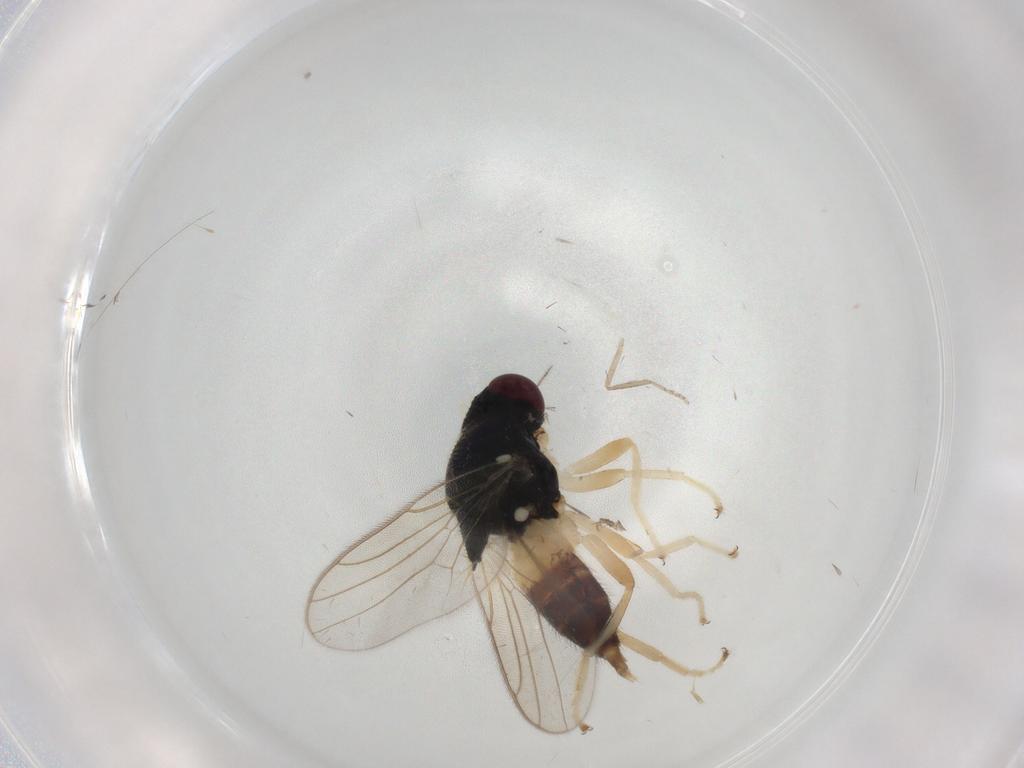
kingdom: Animalia
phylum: Arthropoda
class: Insecta
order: Diptera
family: Chloropidae
